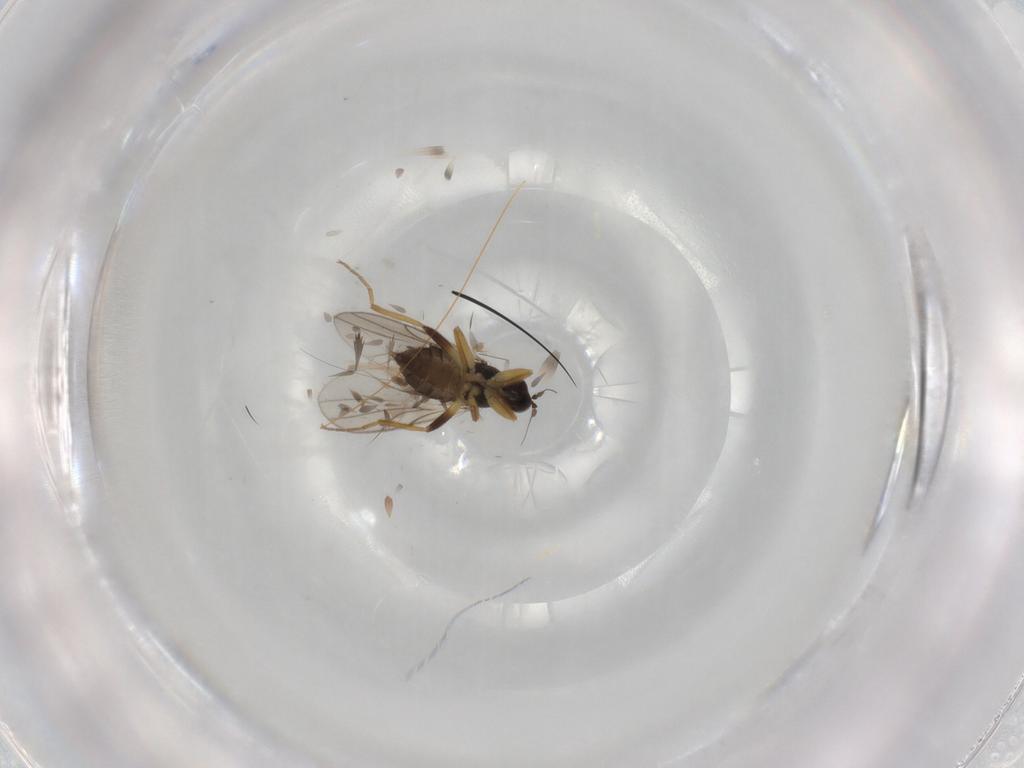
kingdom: Animalia
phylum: Arthropoda
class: Insecta
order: Diptera
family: Hybotidae
